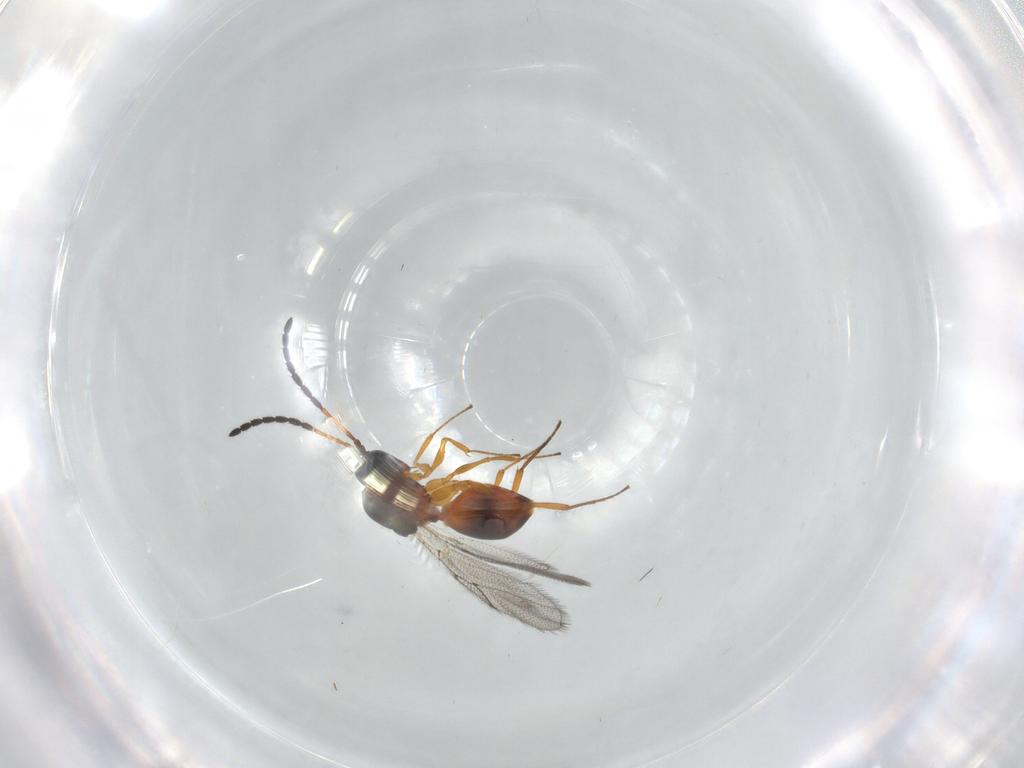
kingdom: Animalia
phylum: Arthropoda
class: Insecta
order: Hymenoptera
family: Figitidae
